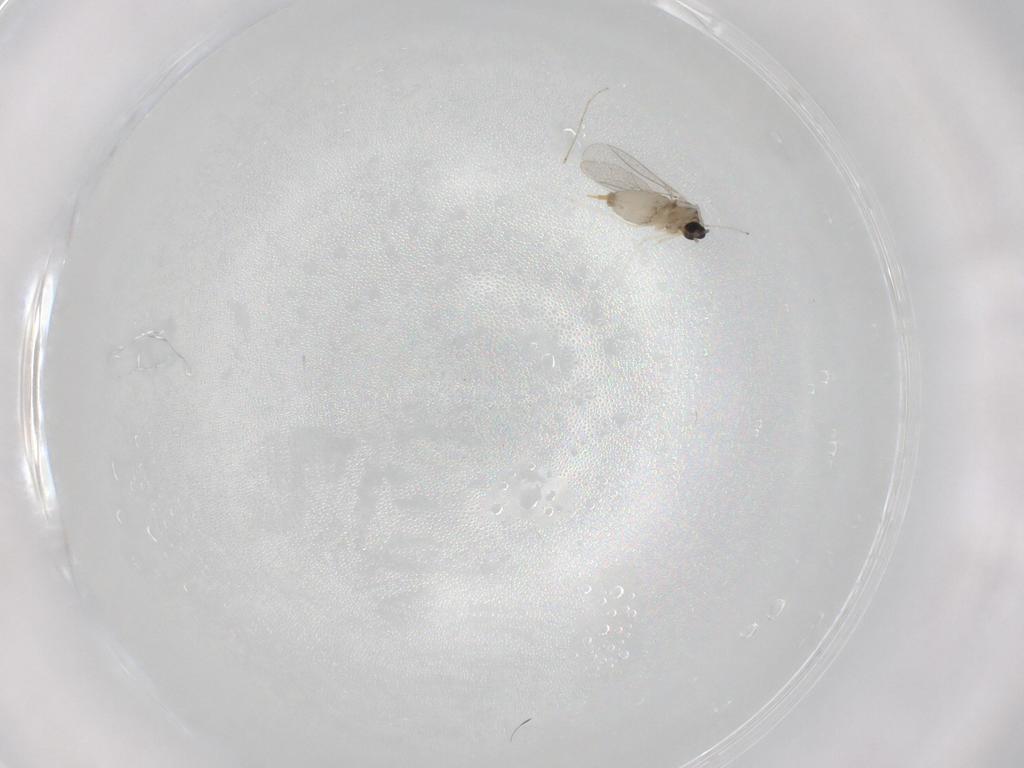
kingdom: Animalia
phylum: Arthropoda
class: Insecta
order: Diptera
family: Cecidomyiidae
